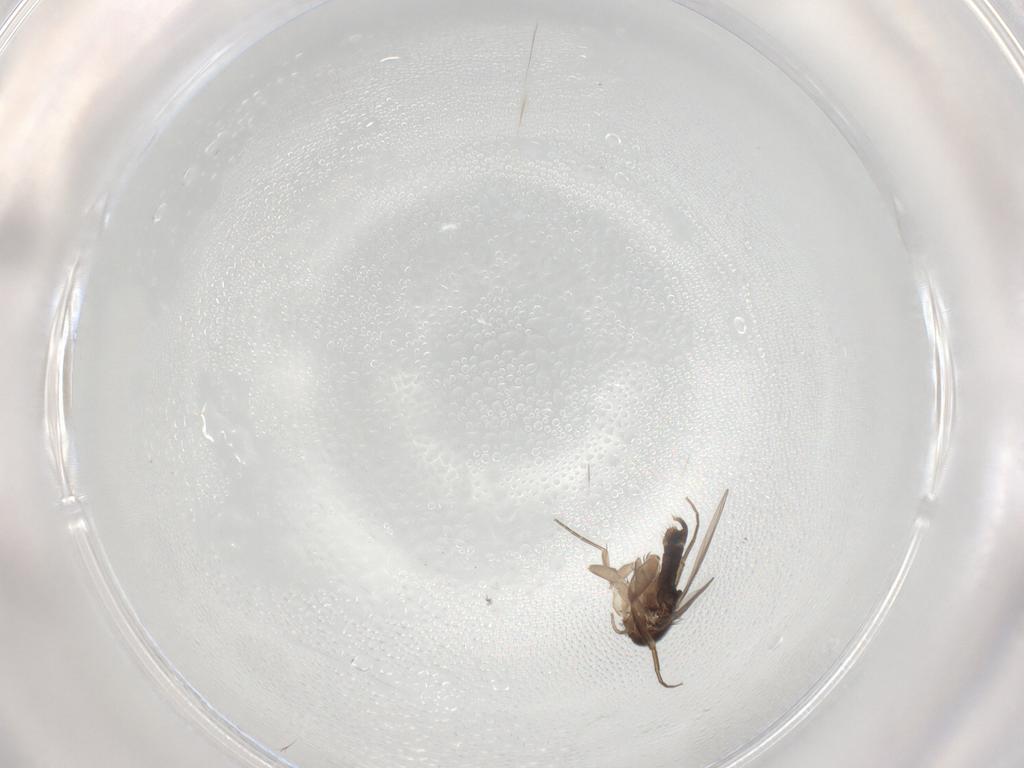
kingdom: Animalia
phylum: Arthropoda
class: Insecta
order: Diptera
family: Phoridae
